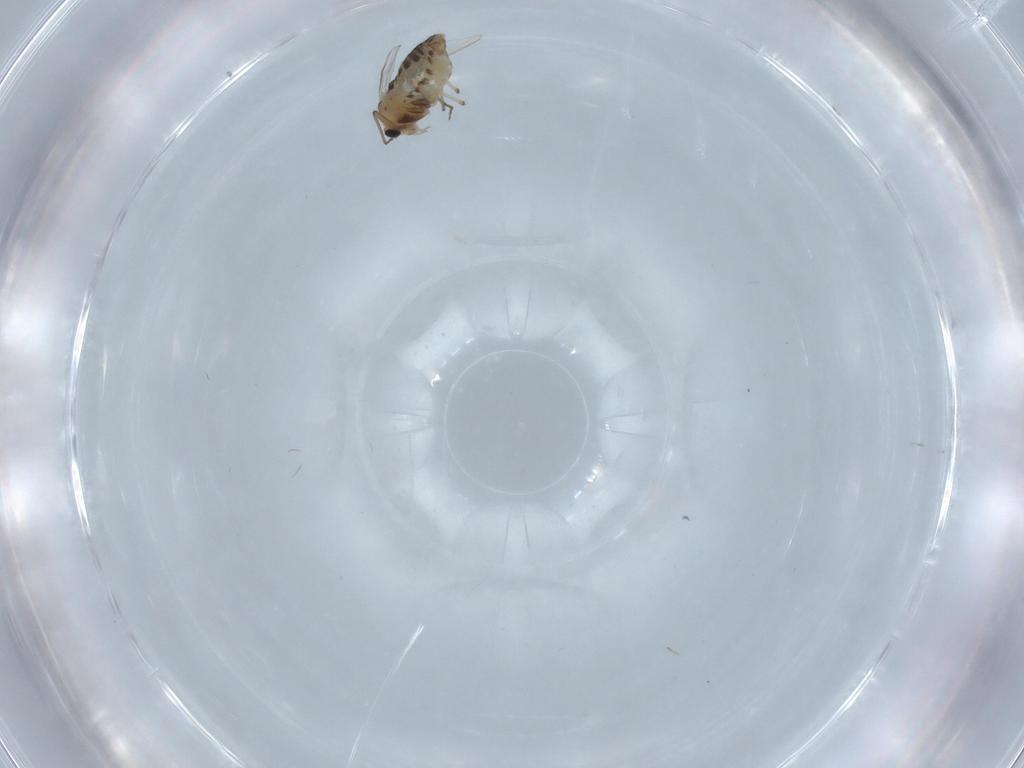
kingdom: Animalia
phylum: Arthropoda
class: Insecta
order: Diptera
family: Chironomidae
